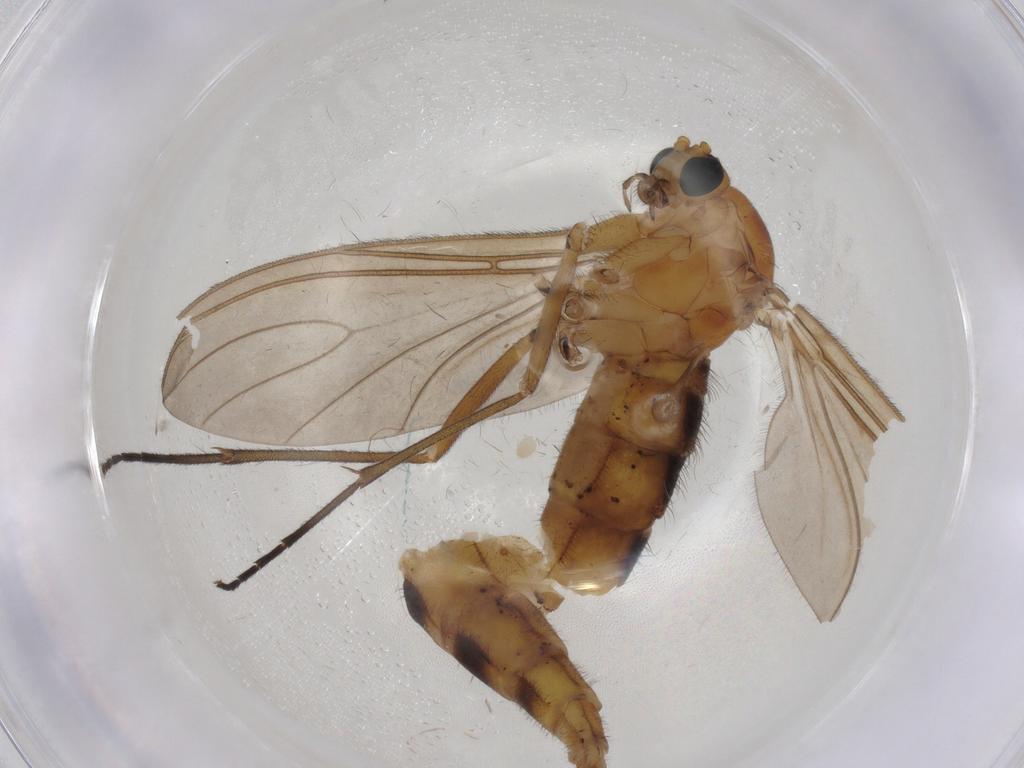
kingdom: Animalia
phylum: Arthropoda
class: Insecta
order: Diptera
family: Sciaridae
